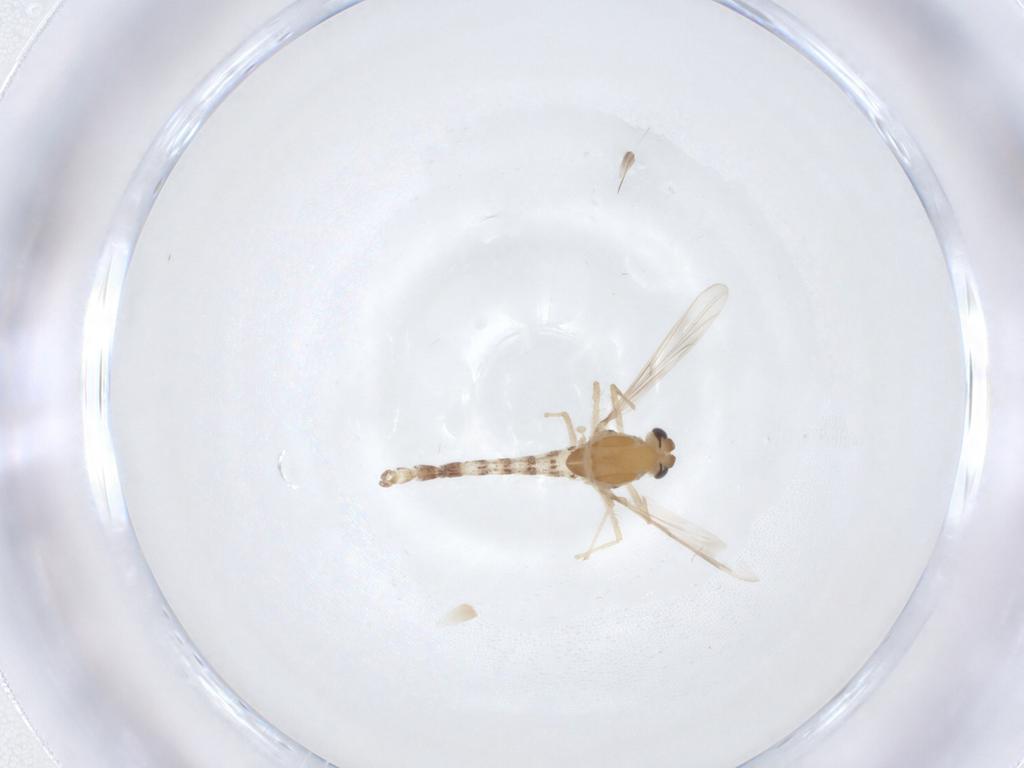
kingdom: Animalia
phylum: Arthropoda
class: Insecta
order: Diptera
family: Chironomidae
